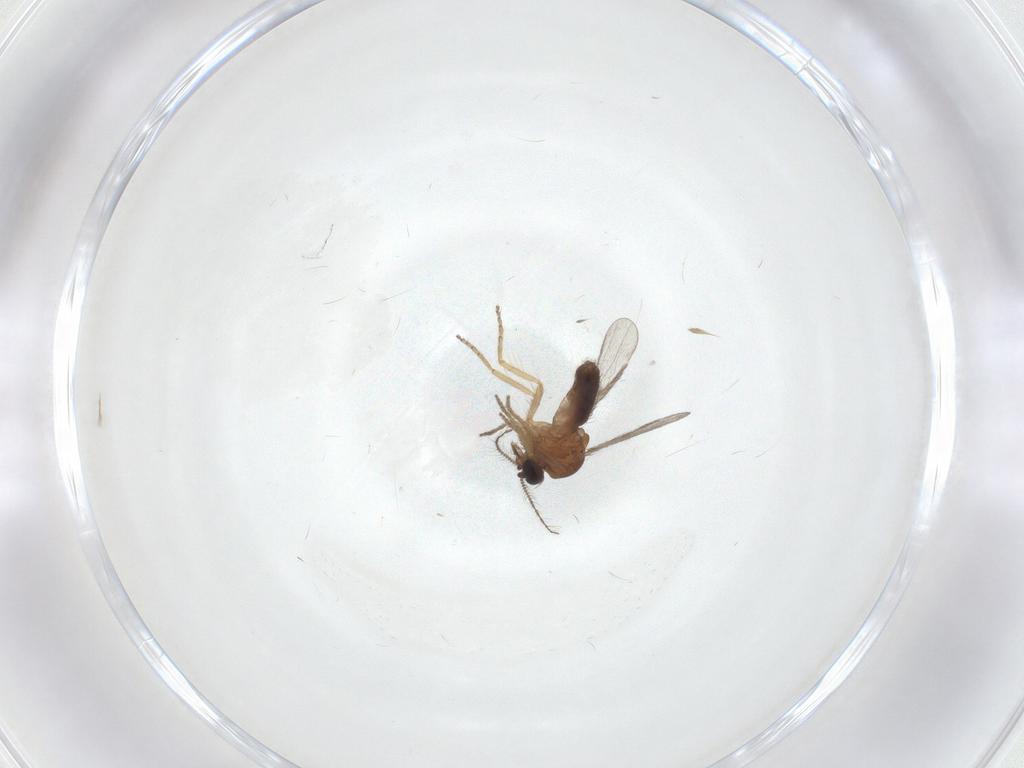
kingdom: Animalia
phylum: Arthropoda
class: Insecta
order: Diptera
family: Ceratopogonidae
